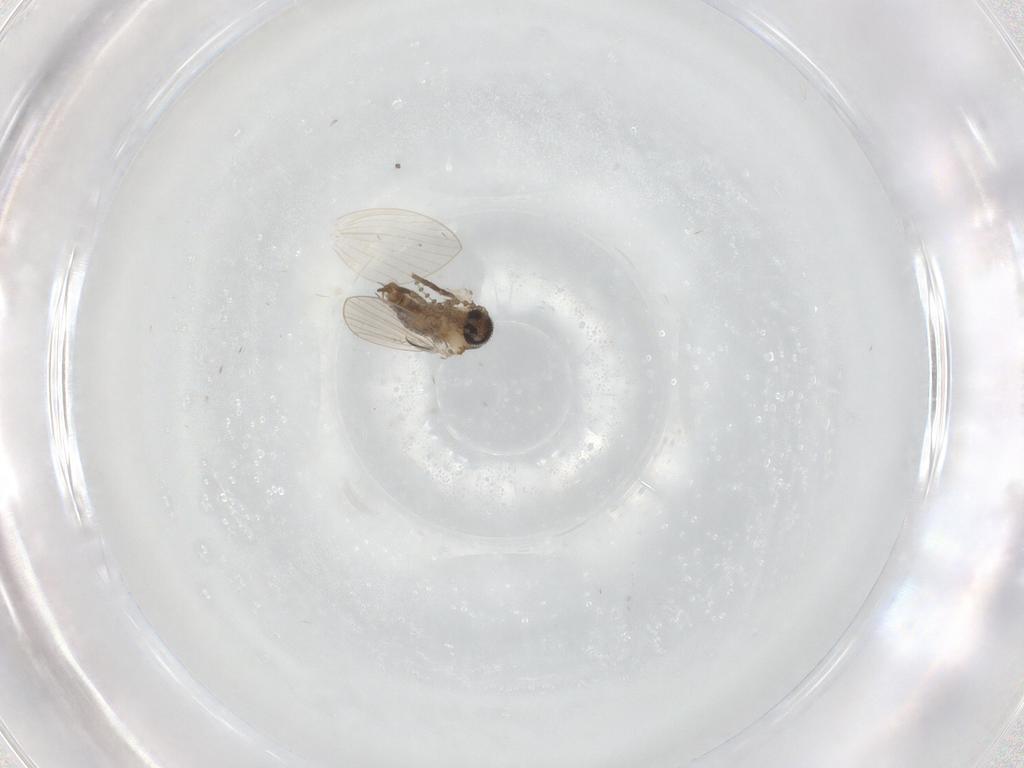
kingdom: Animalia
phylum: Arthropoda
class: Insecta
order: Diptera
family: Psychodidae
